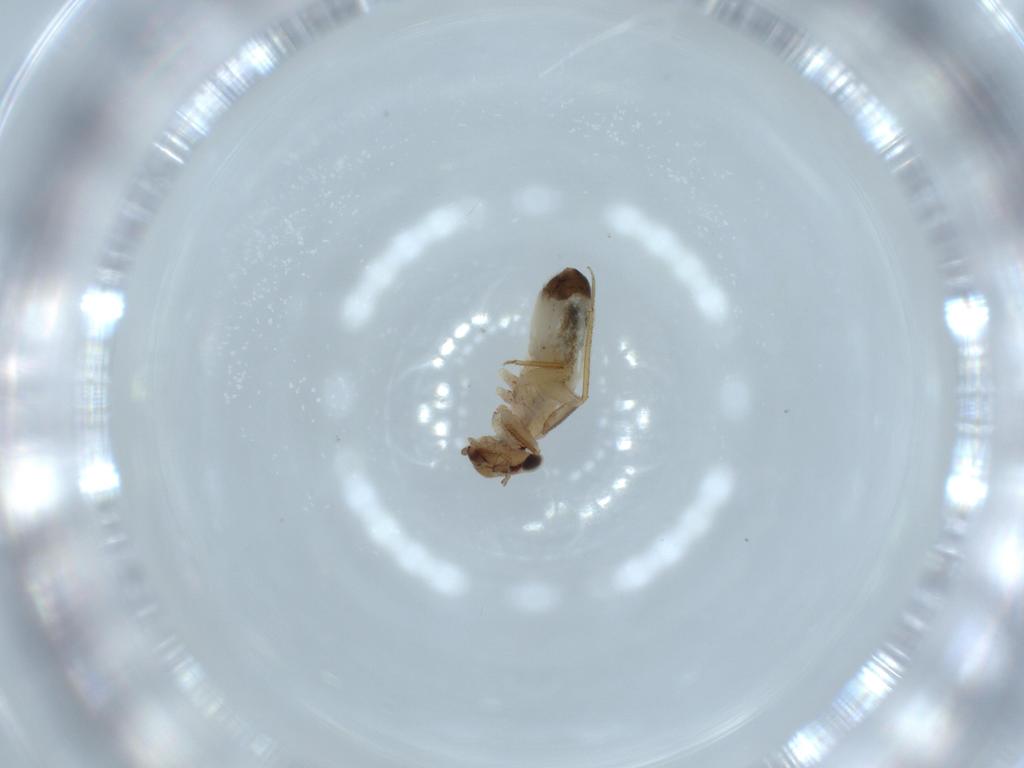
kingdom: Animalia
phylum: Arthropoda
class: Insecta
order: Psocodea
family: Lepidopsocidae
